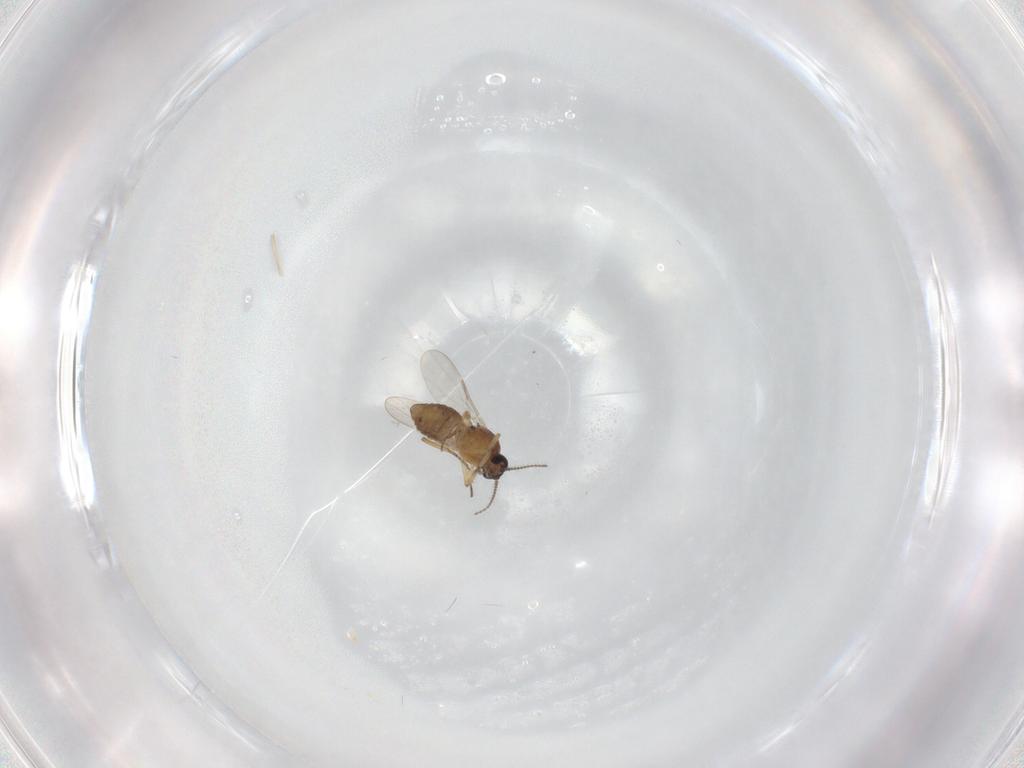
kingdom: Animalia
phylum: Arthropoda
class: Insecta
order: Diptera
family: Ceratopogonidae
